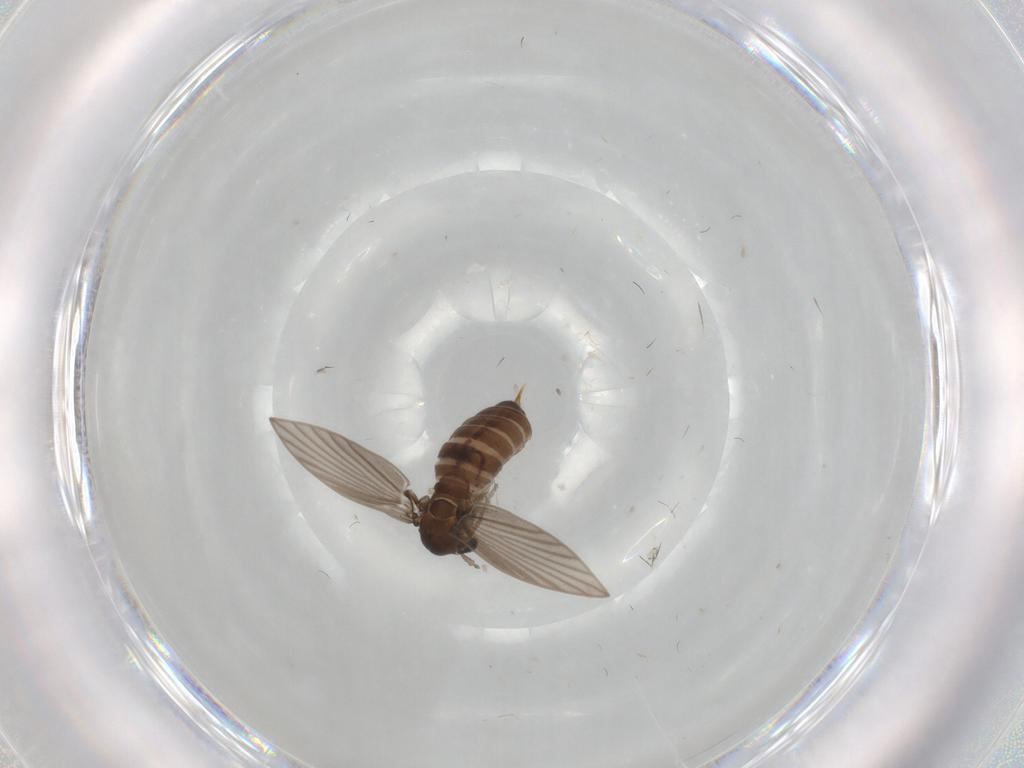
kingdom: Animalia
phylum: Arthropoda
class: Insecta
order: Diptera
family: Psychodidae
